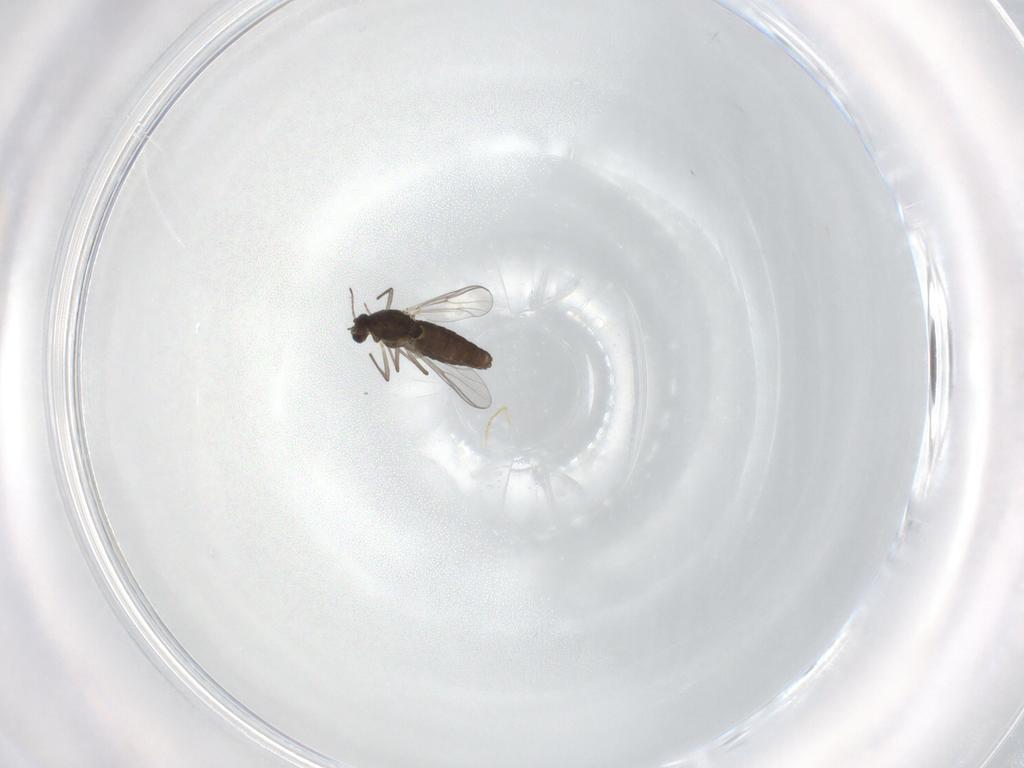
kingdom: Animalia
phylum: Arthropoda
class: Insecta
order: Diptera
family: Chironomidae
